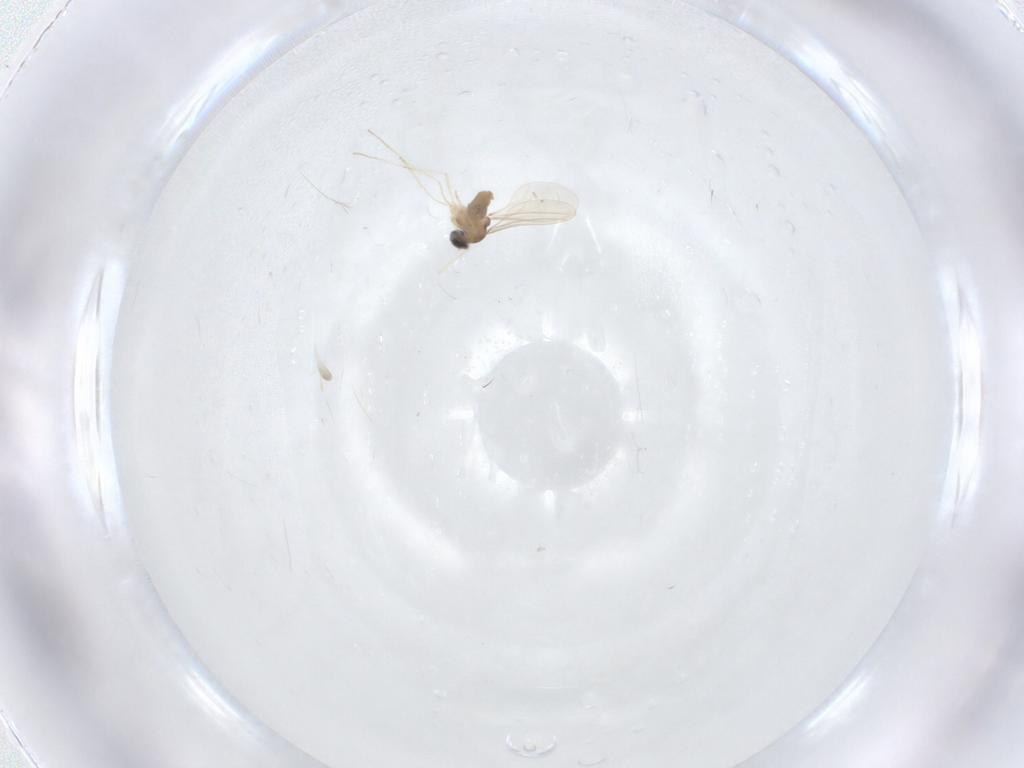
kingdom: Animalia
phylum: Arthropoda
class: Insecta
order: Diptera
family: Cecidomyiidae
